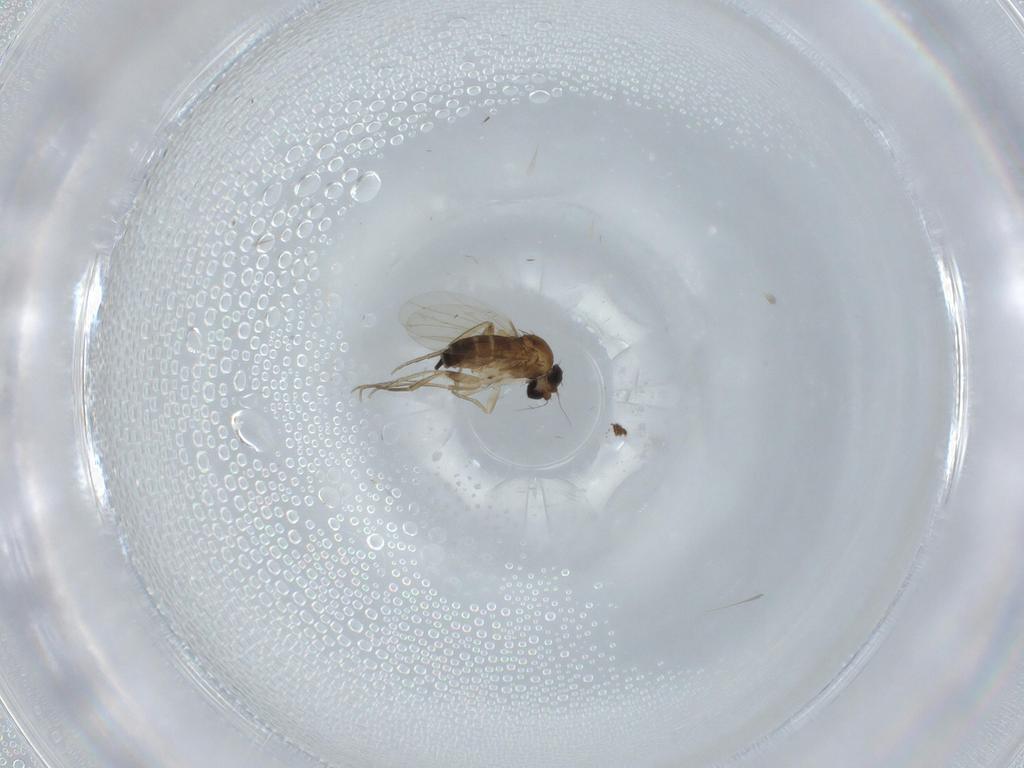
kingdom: Animalia
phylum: Arthropoda
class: Insecta
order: Diptera
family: Phoridae
